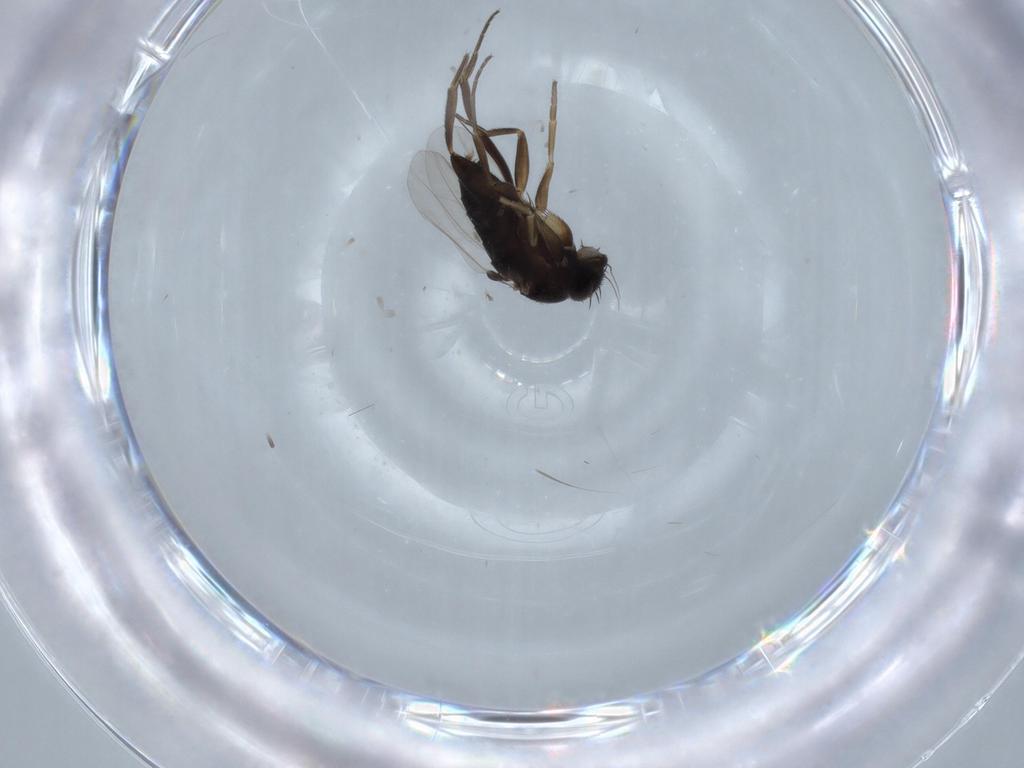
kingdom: Animalia
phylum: Arthropoda
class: Insecta
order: Diptera
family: Phoridae
